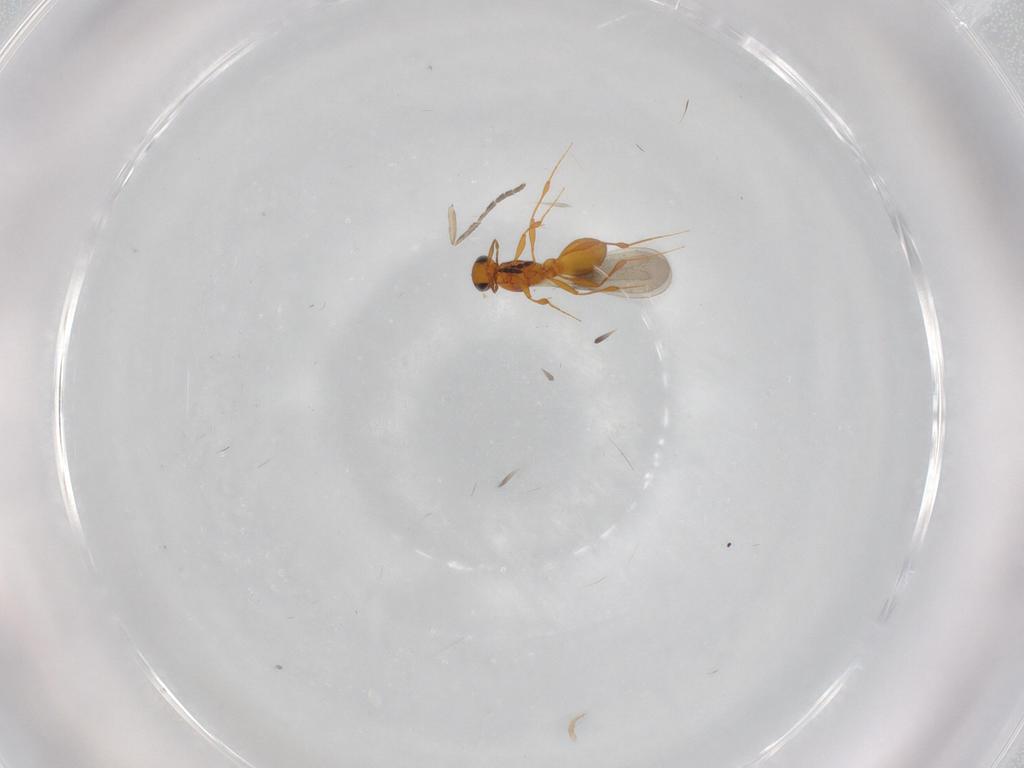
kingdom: Animalia
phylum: Arthropoda
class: Insecta
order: Hymenoptera
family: Platygastridae
